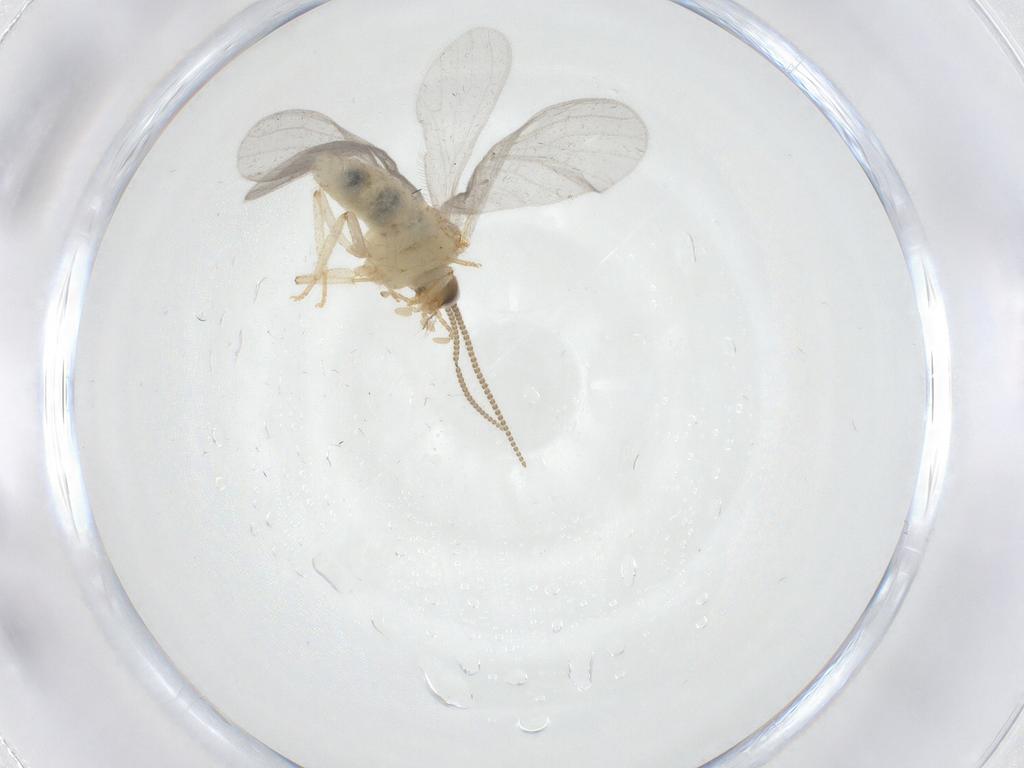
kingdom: Animalia
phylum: Arthropoda
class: Insecta
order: Neuroptera
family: Coniopterygidae
